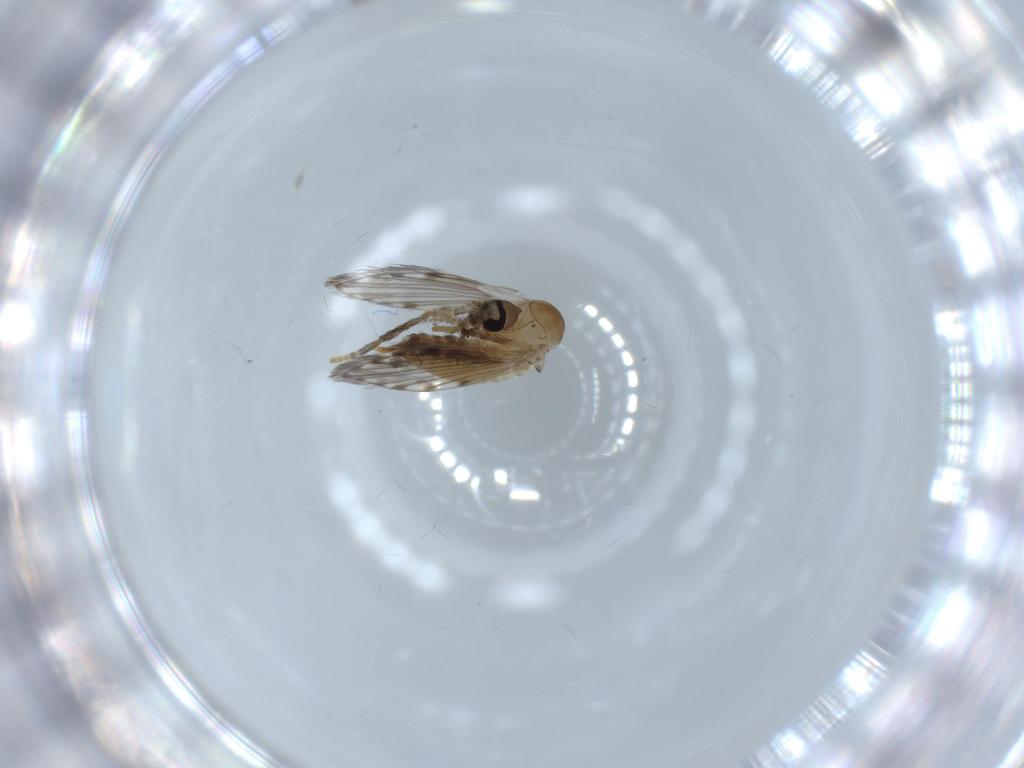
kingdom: Animalia
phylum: Arthropoda
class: Insecta
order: Diptera
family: Psychodidae
